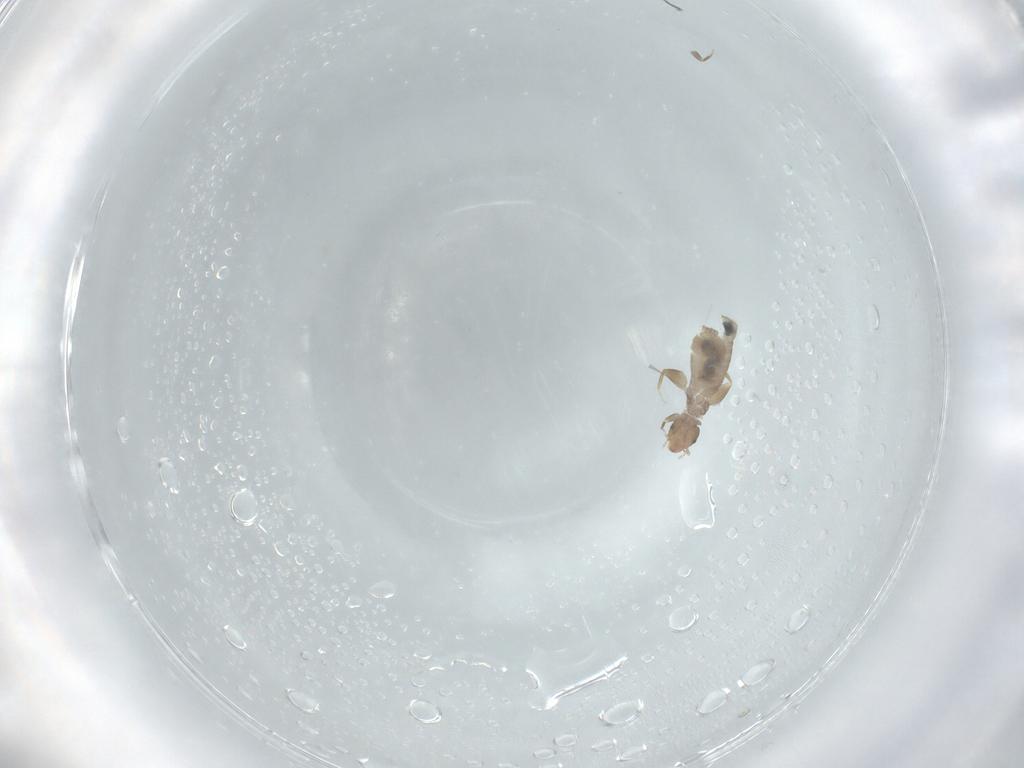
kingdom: Animalia
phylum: Arthropoda
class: Insecta
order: Psocodea
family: Liposcelididae
